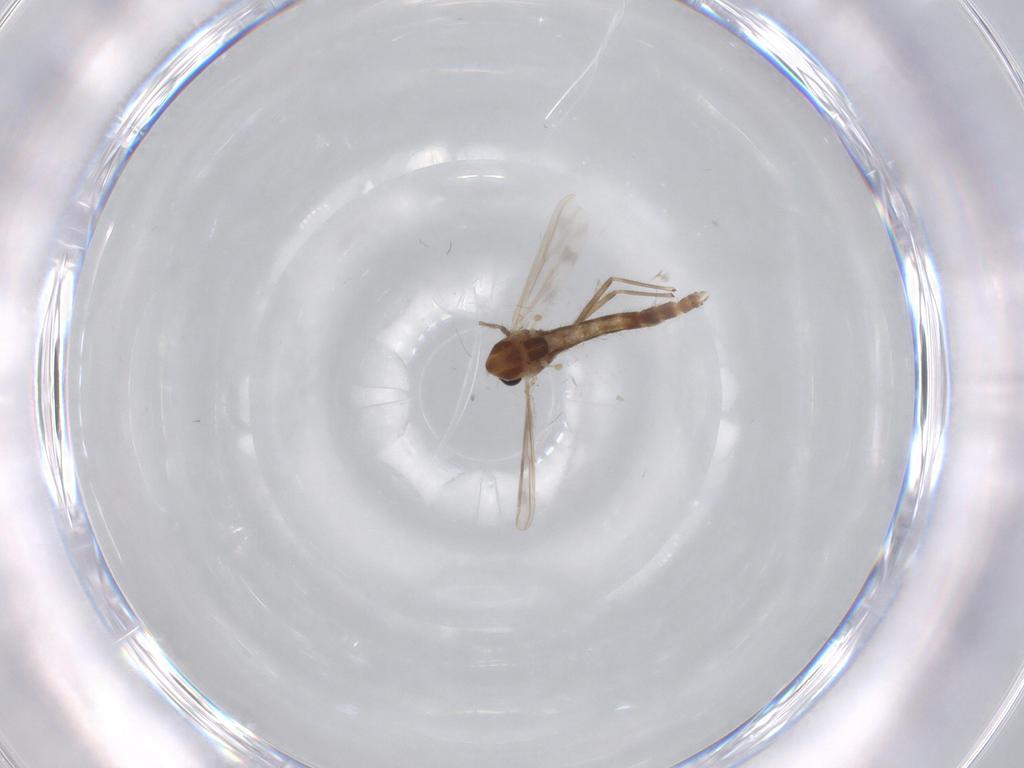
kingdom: Animalia
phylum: Arthropoda
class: Insecta
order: Diptera
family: Chironomidae
